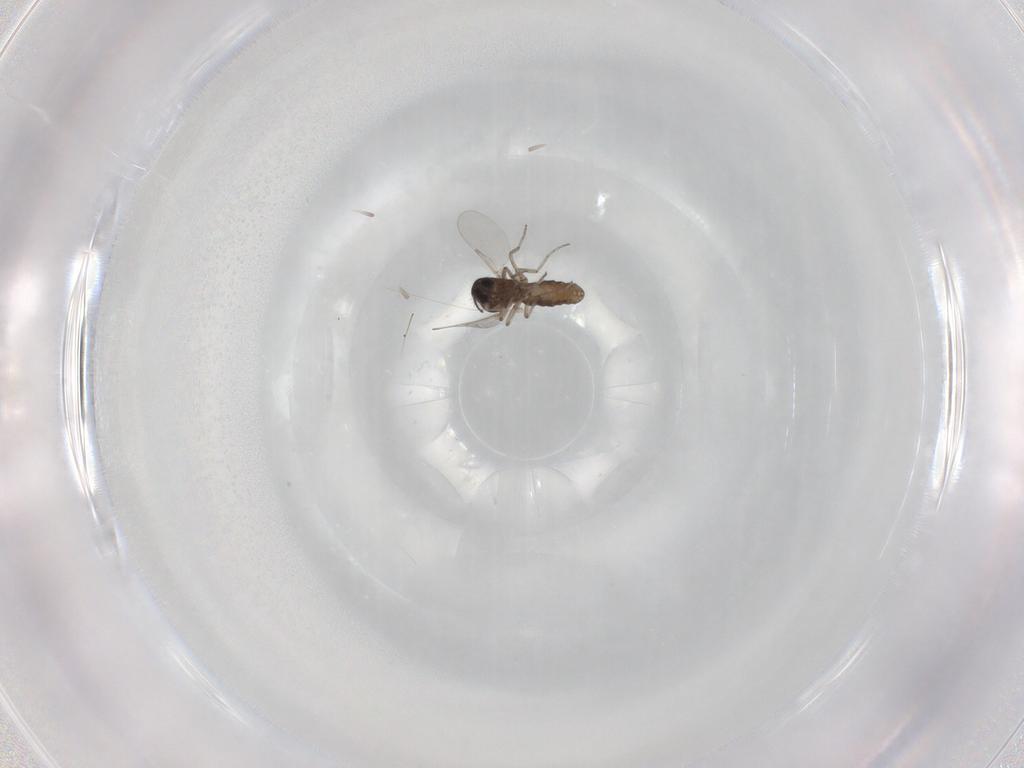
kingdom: Animalia
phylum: Arthropoda
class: Insecta
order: Diptera
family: Ceratopogonidae
